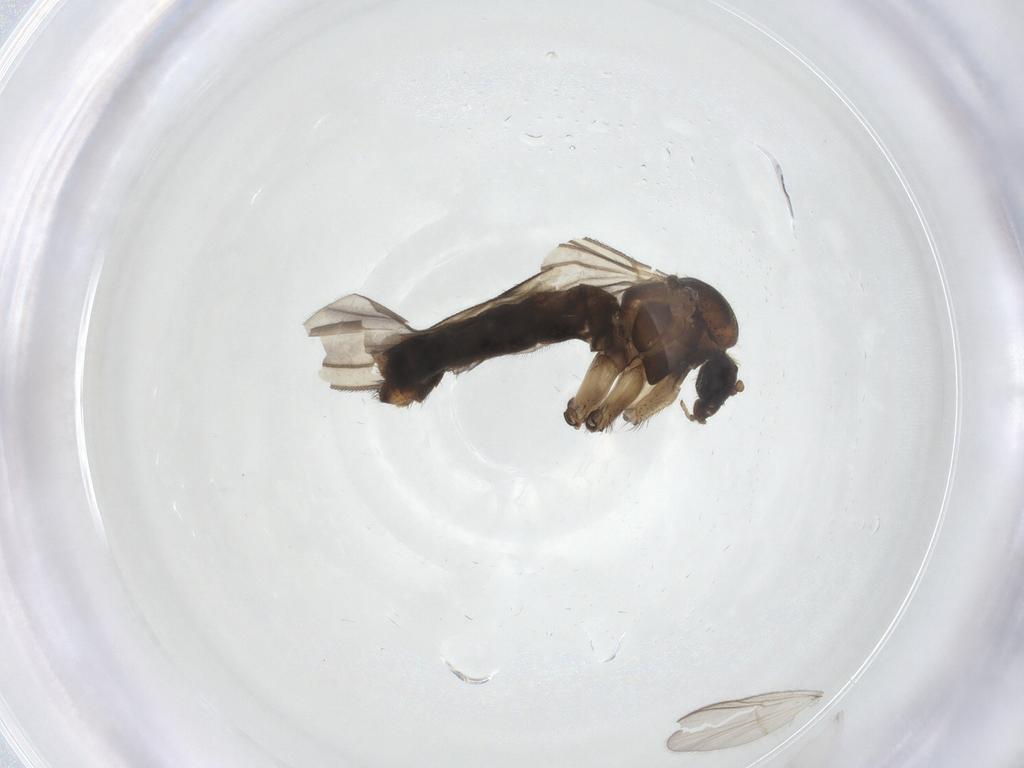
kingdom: Animalia
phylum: Arthropoda
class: Insecta
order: Diptera
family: Mycetophilidae
